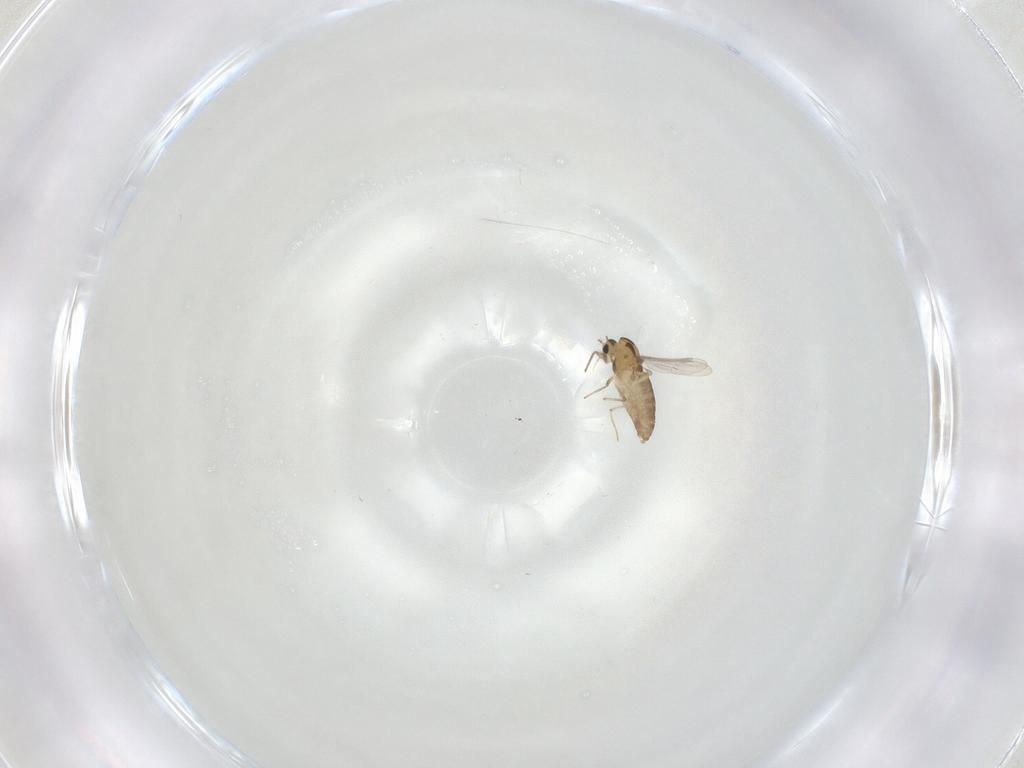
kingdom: Animalia
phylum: Arthropoda
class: Insecta
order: Diptera
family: Chironomidae
